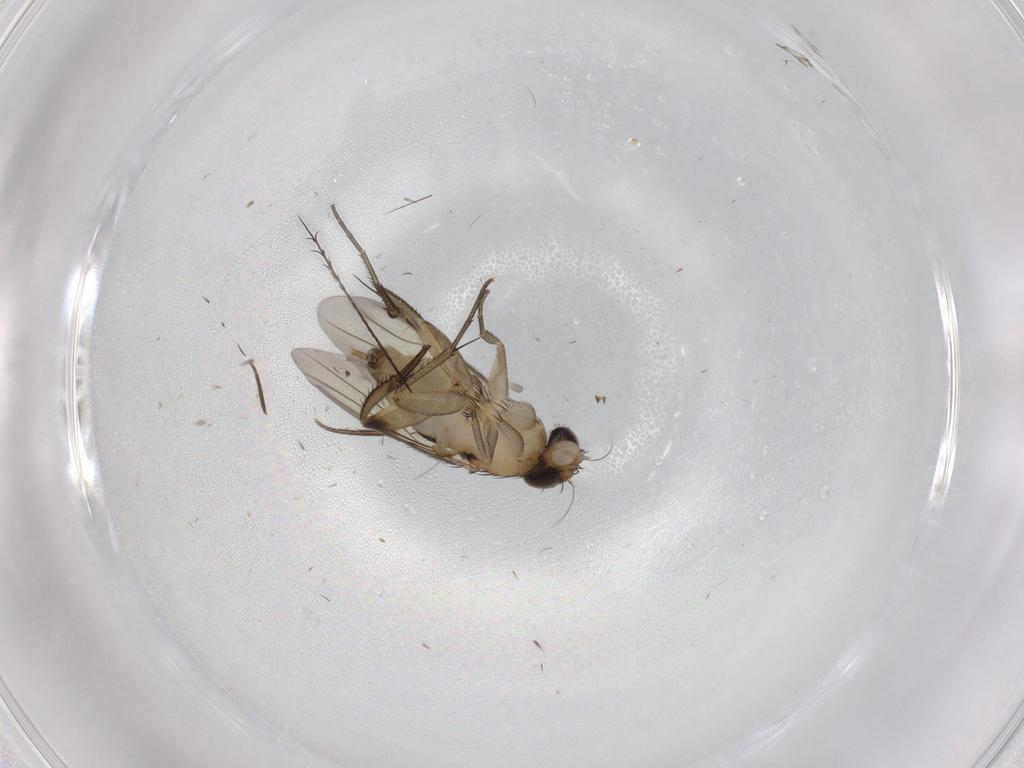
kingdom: Animalia
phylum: Arthropoda
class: Insecta
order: Diptera
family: Phoridae
